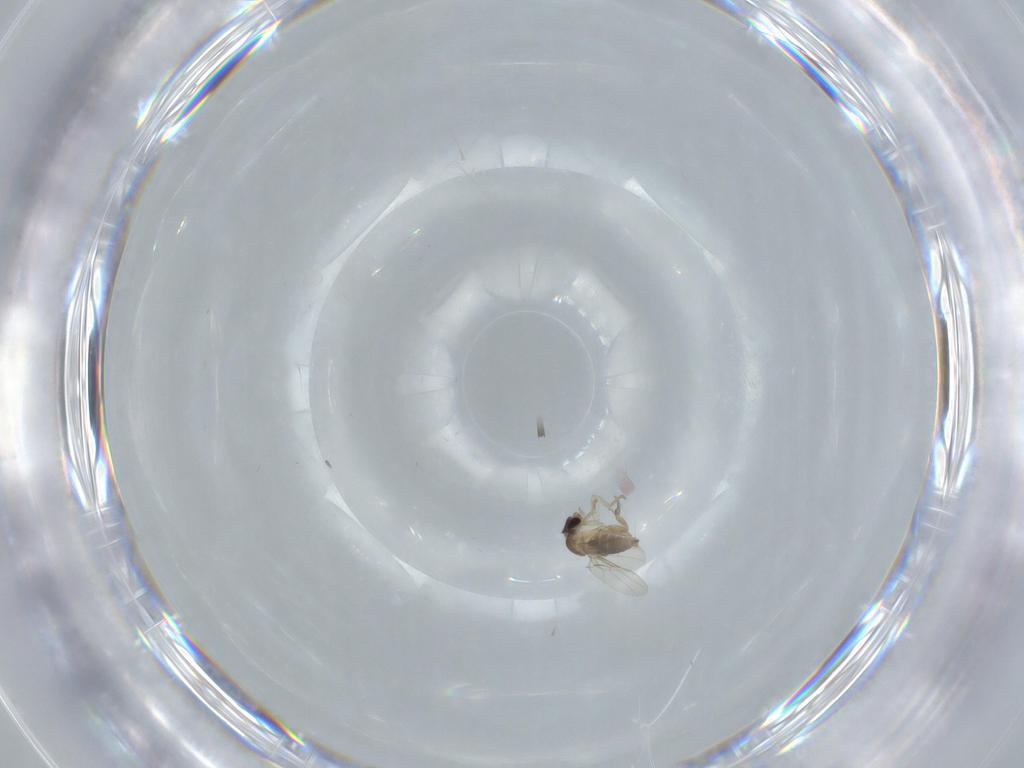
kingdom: Animalia
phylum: Arthropoda
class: Insecta
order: Diptera
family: Phoridae
